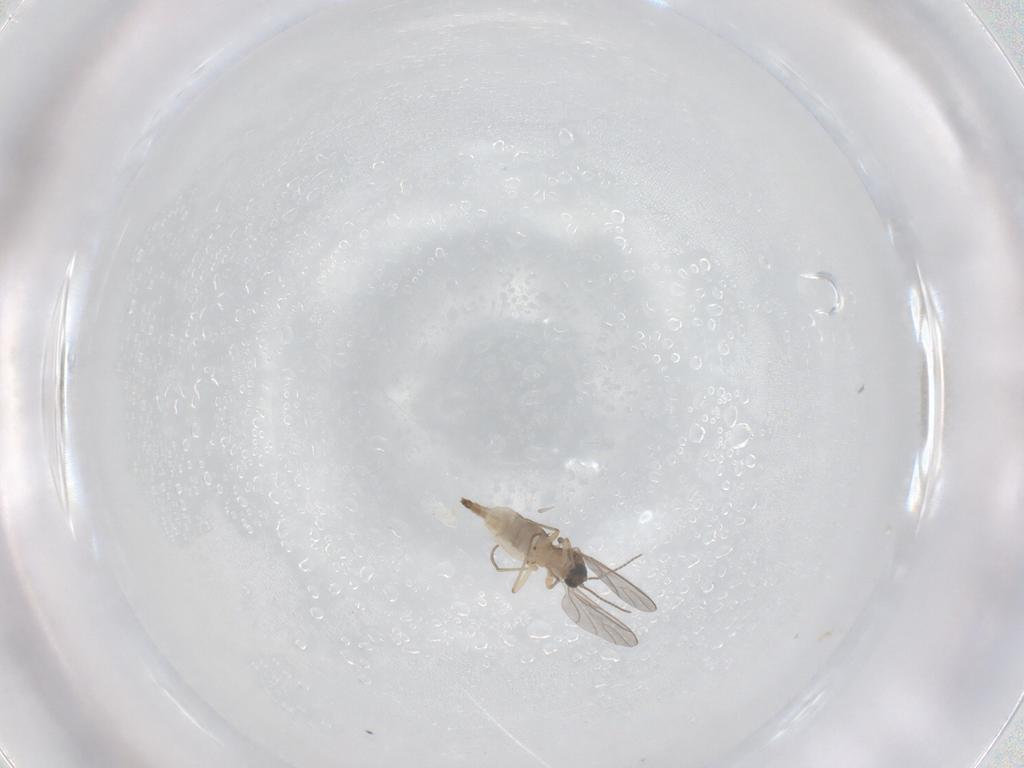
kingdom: Animalia
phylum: Arthropoda
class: Insecta
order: Diptera
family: Sciaridae
